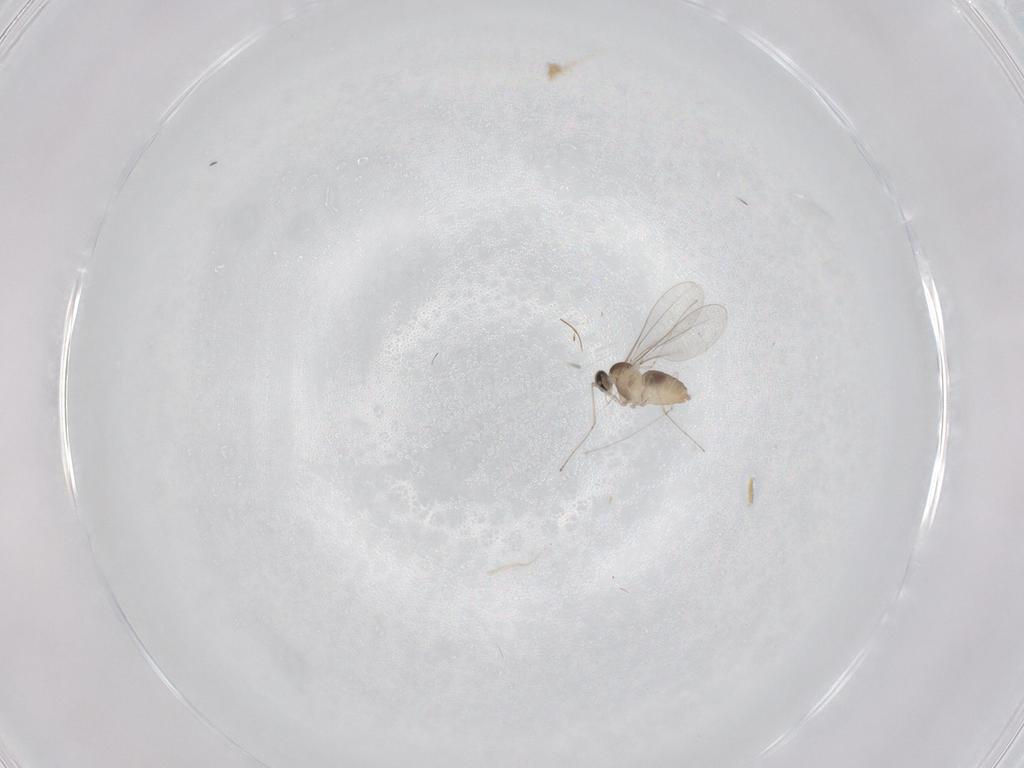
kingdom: Animalia
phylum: Arthropoda
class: Insecta
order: Diptera
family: Cecidomyiidae
